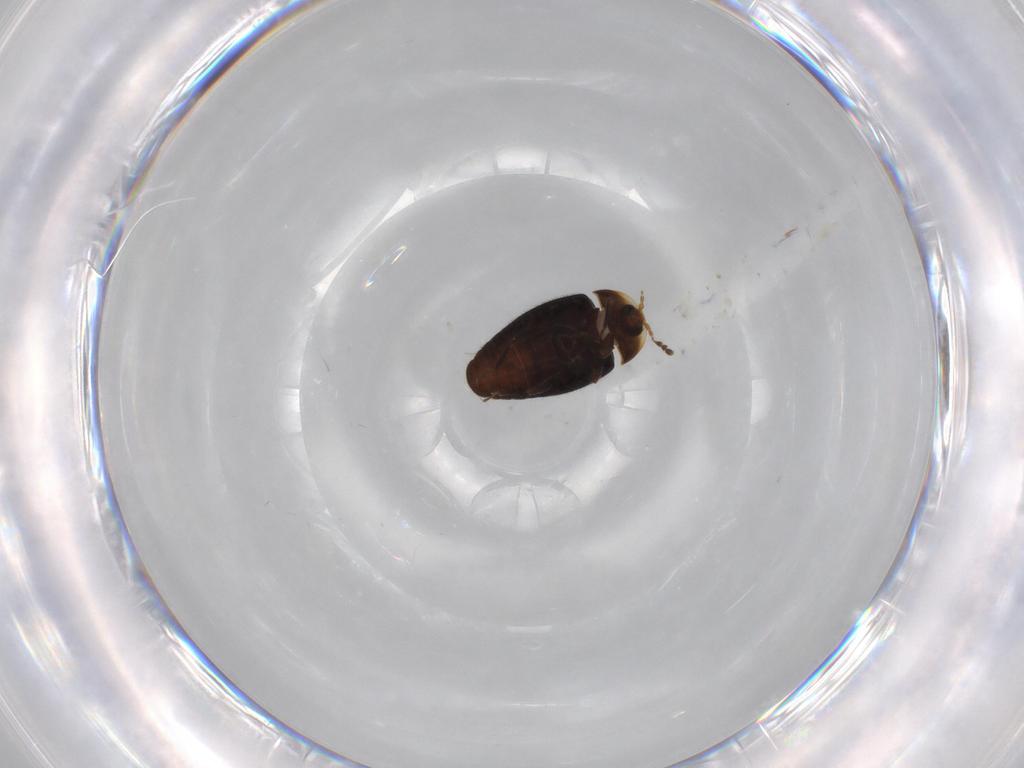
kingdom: Animalia
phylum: Arthropoda
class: Insecta
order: Coleoptera
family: Corylophidae
